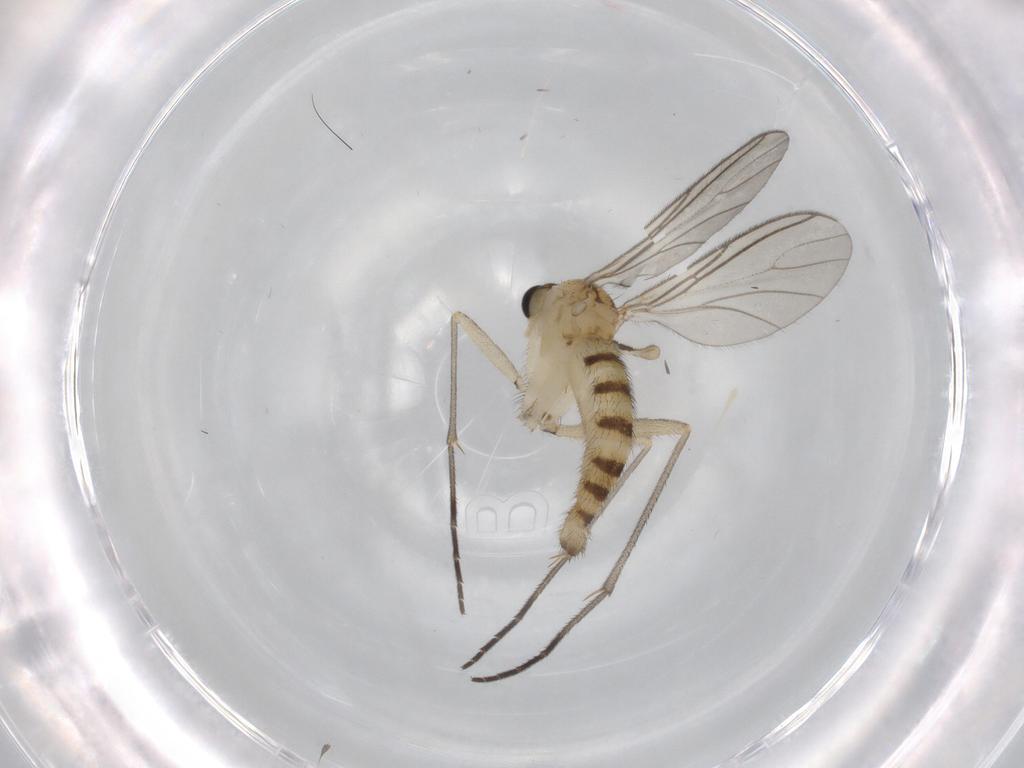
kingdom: Animalia
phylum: Arthropoda
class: Insecta
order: Diptera
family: Sciaridae
